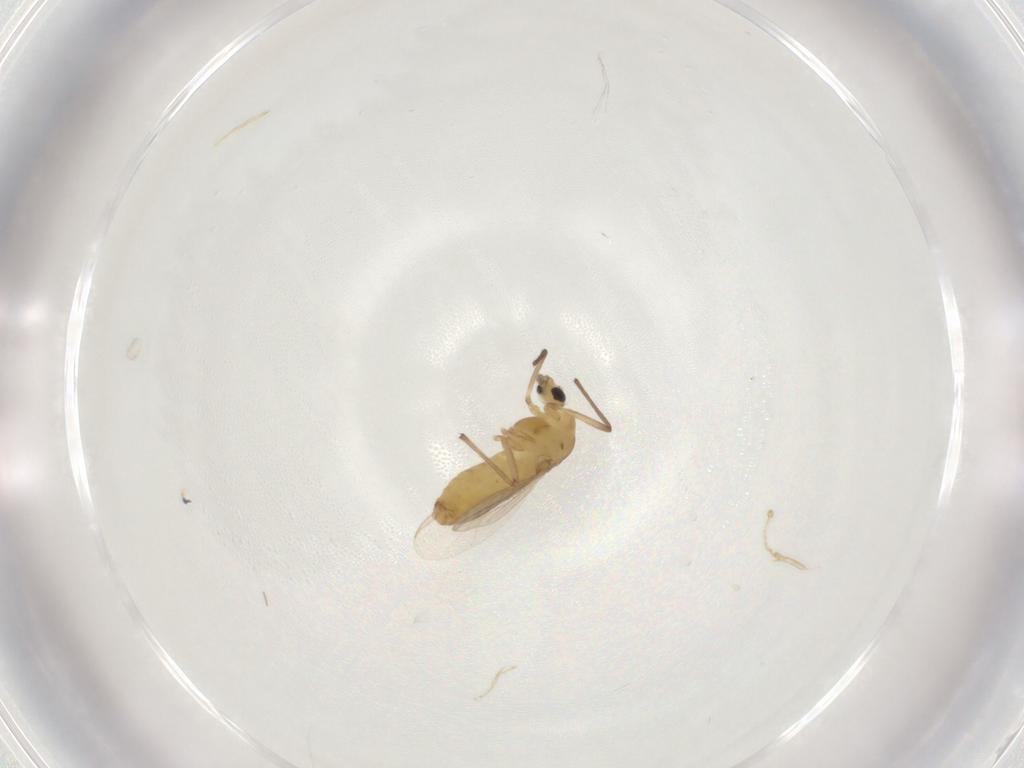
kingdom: Animalia
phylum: Arthropoda
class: Insecta
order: Diptera
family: Chironomidae
